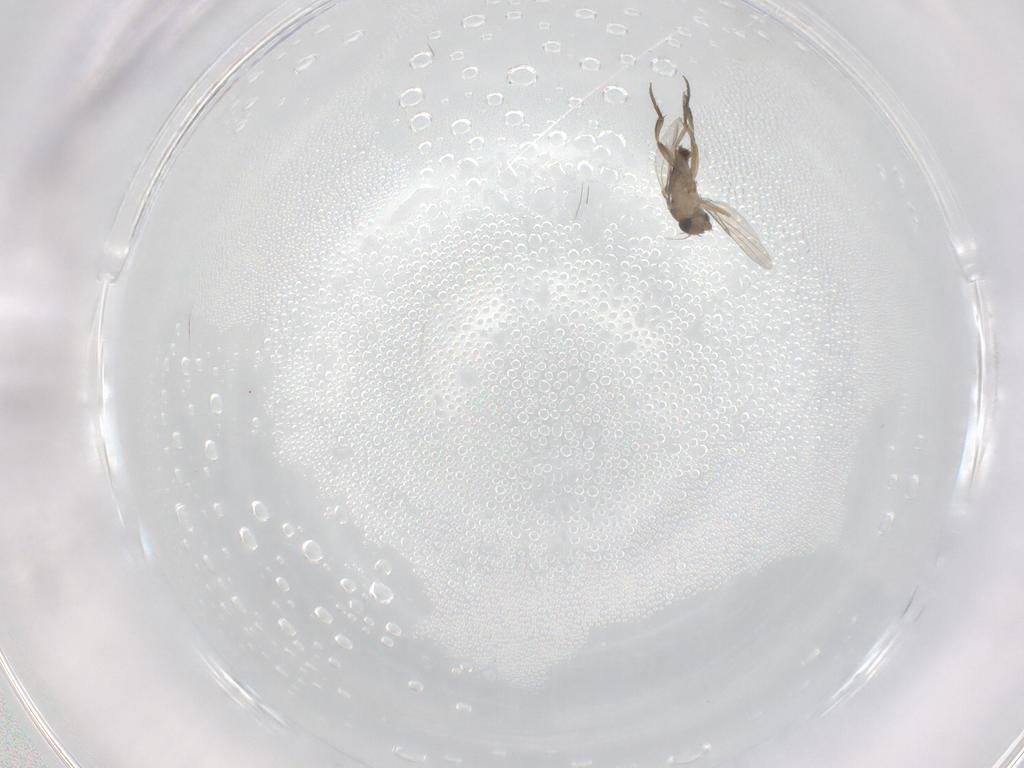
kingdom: Animalia
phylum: Arthropoda
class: Insecta
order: Diptera
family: Phoridae
